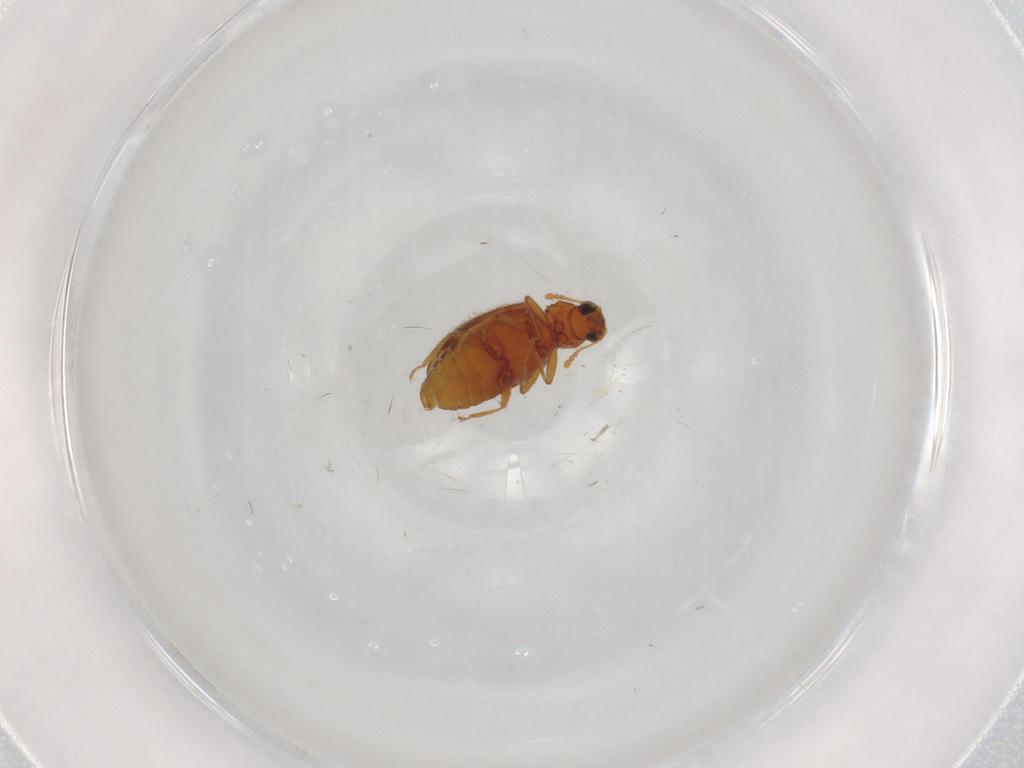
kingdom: Animalia
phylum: Arthropoda
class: Insecta
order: Coleoptera
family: Latridiidae
